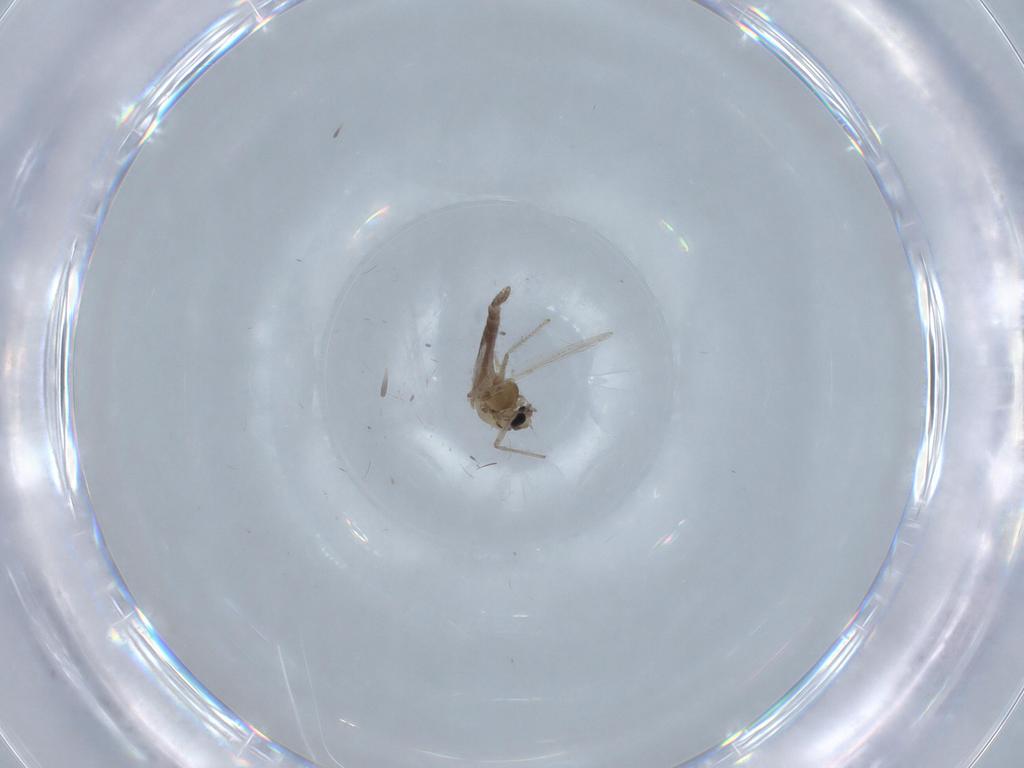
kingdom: Animalia
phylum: Arthropoda
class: Insecta
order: Diptera
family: Chironomidae
